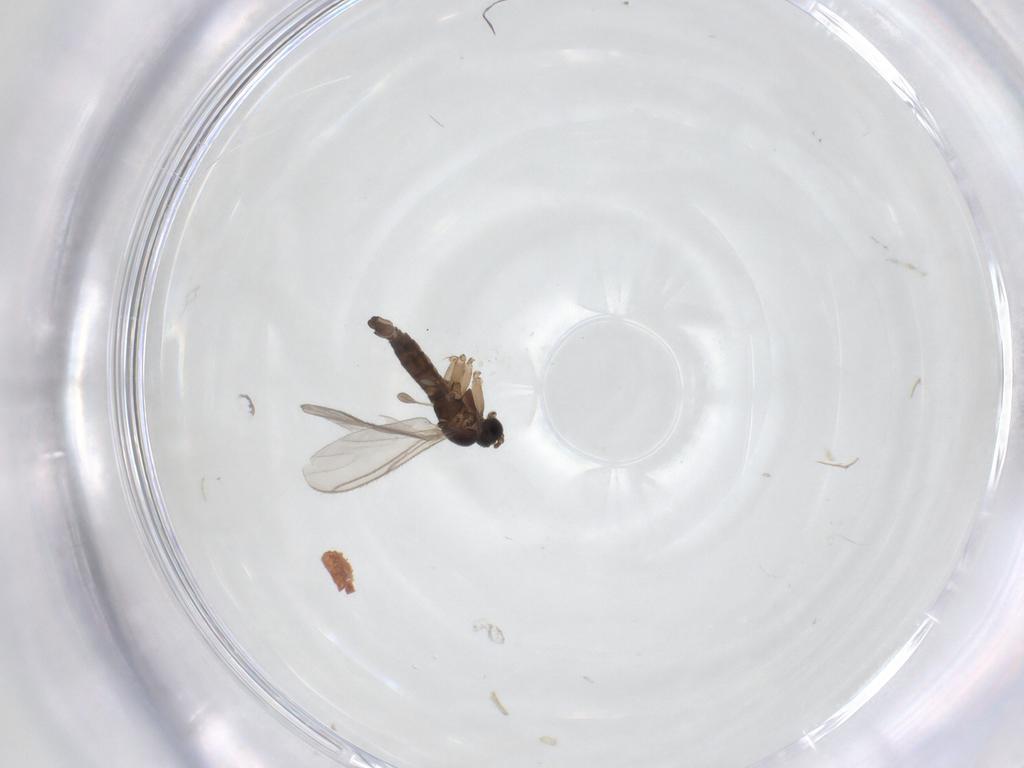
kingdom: Animalia
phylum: Arthropoda
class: Insecta
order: Diptera
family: Sciaridae
